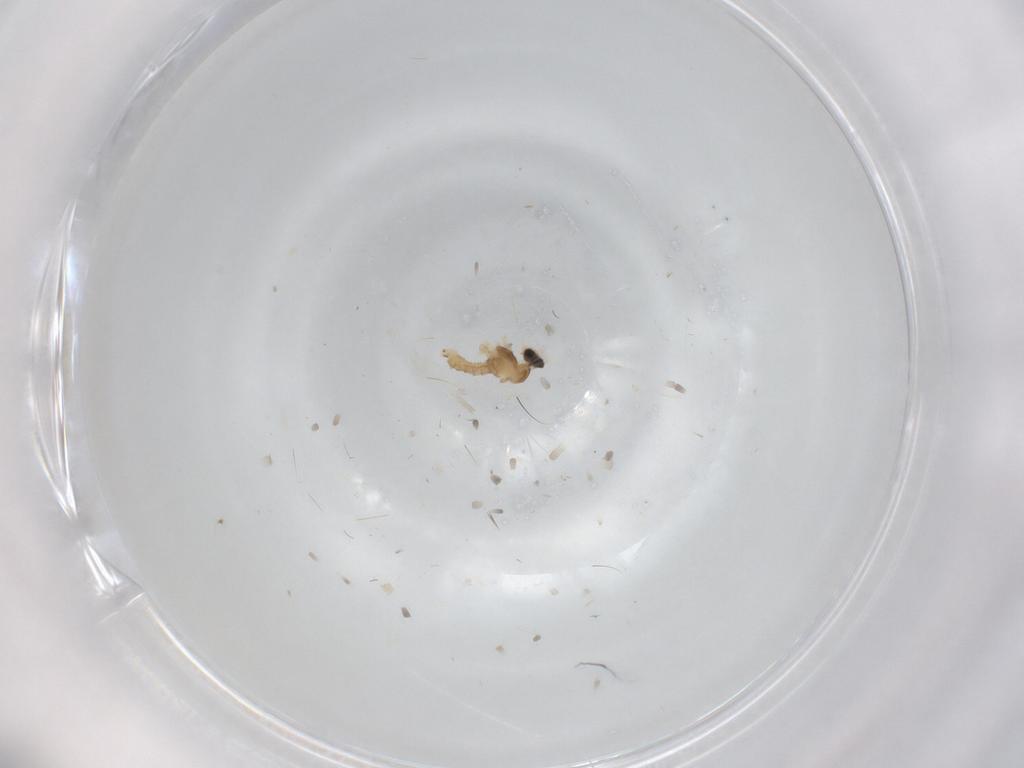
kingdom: Animalia
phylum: Arthropoda
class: Insecta
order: Diptera
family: Cecidomyiidae
